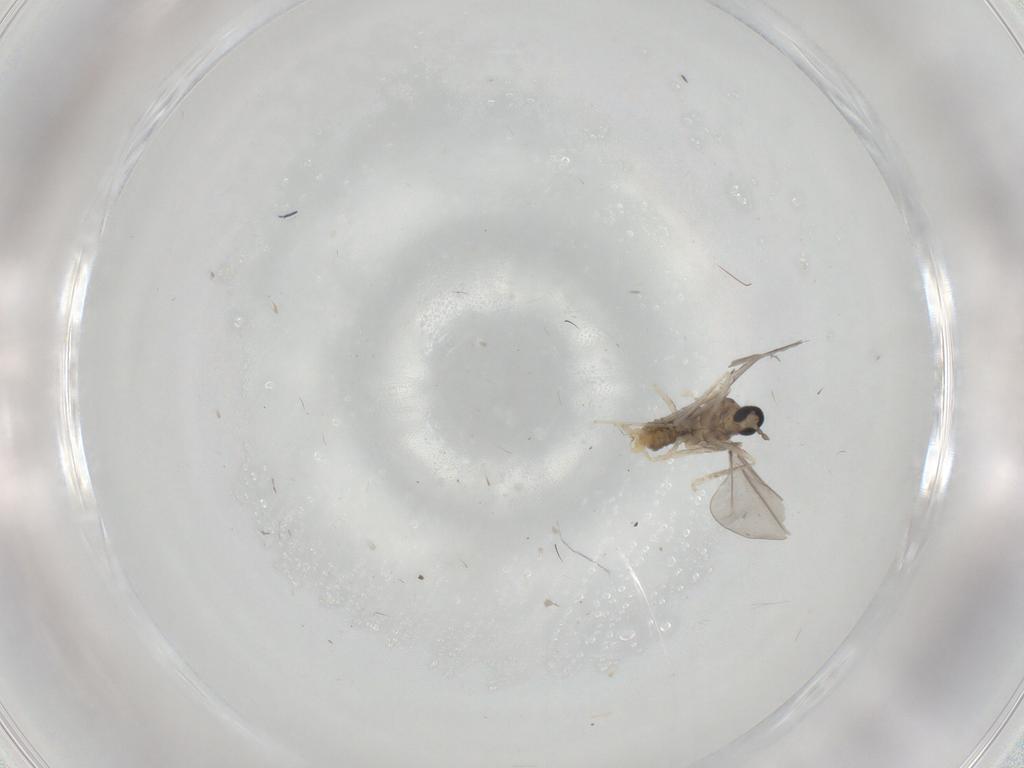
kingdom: Animalia
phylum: Arthropoda
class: Insecta
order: Diptera
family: Cecidomyiidae
